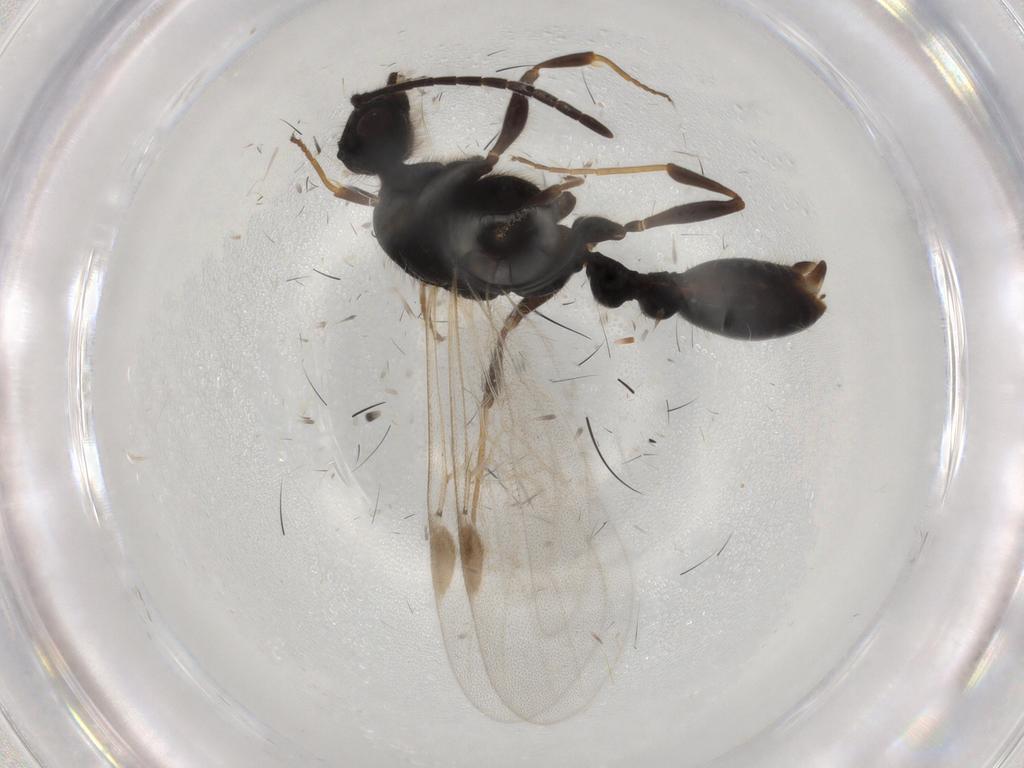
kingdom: Animalia
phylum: Arthropoda
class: Insecta
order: Hymenoptera
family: Formicidae
